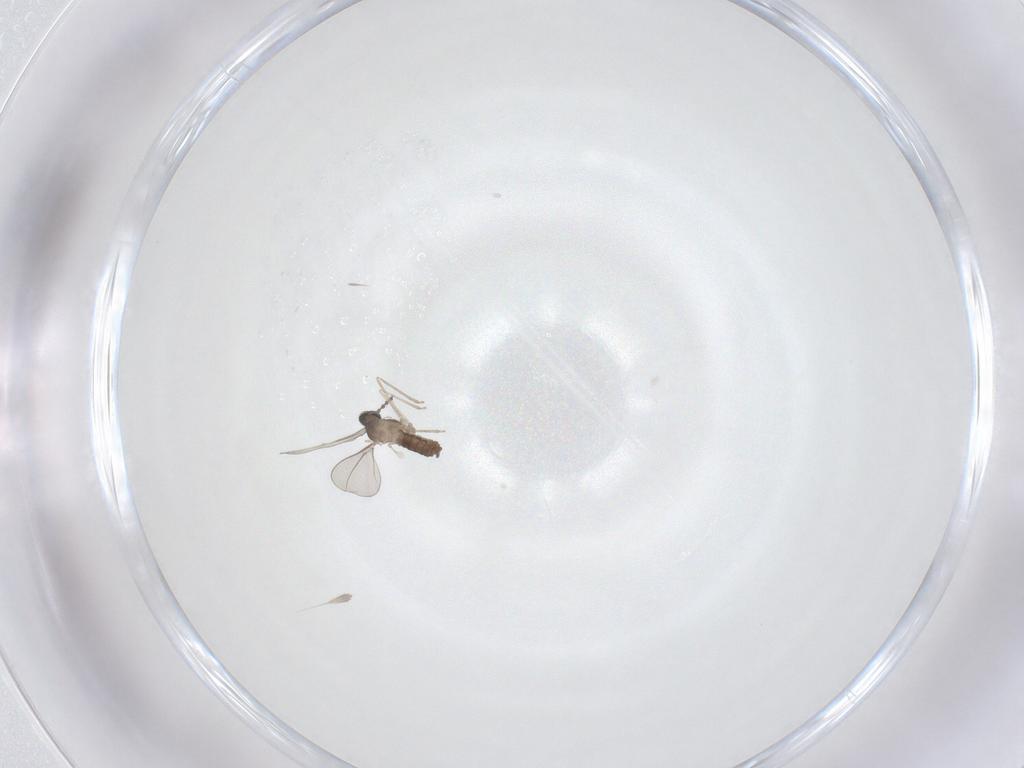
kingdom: Animalia
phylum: Arthropoda
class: Insecta
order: Diptera
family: Cecidomyiidae
